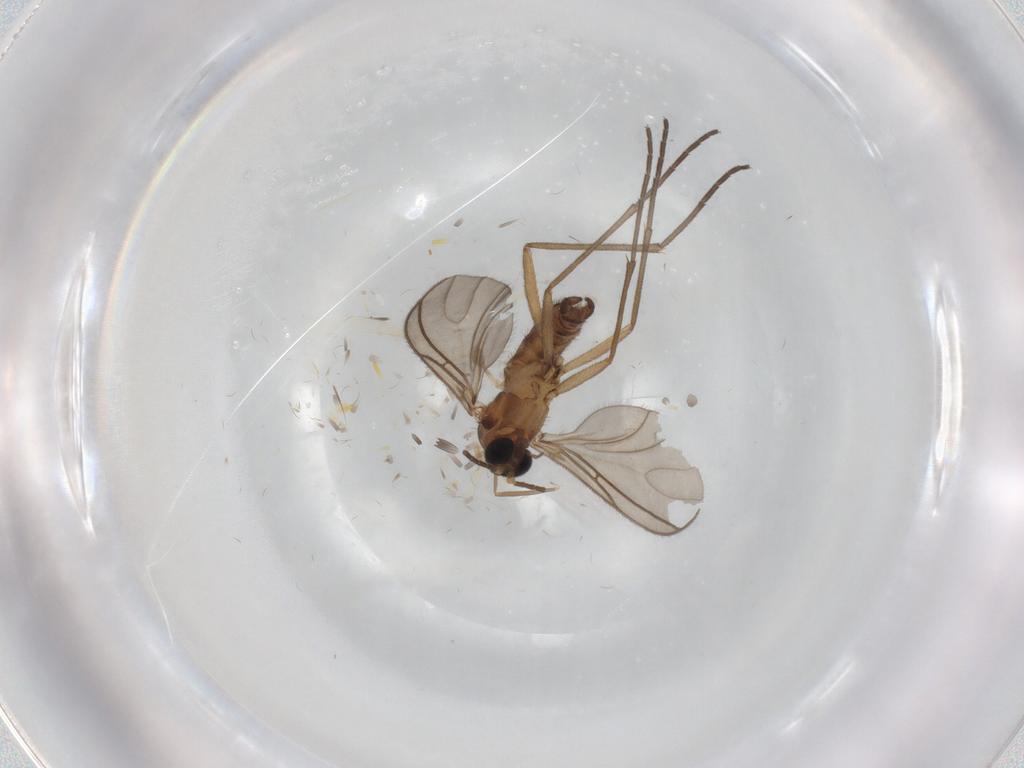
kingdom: Animalia
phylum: Arthropoda
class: Insecta
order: Diptera
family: Sciaridae
